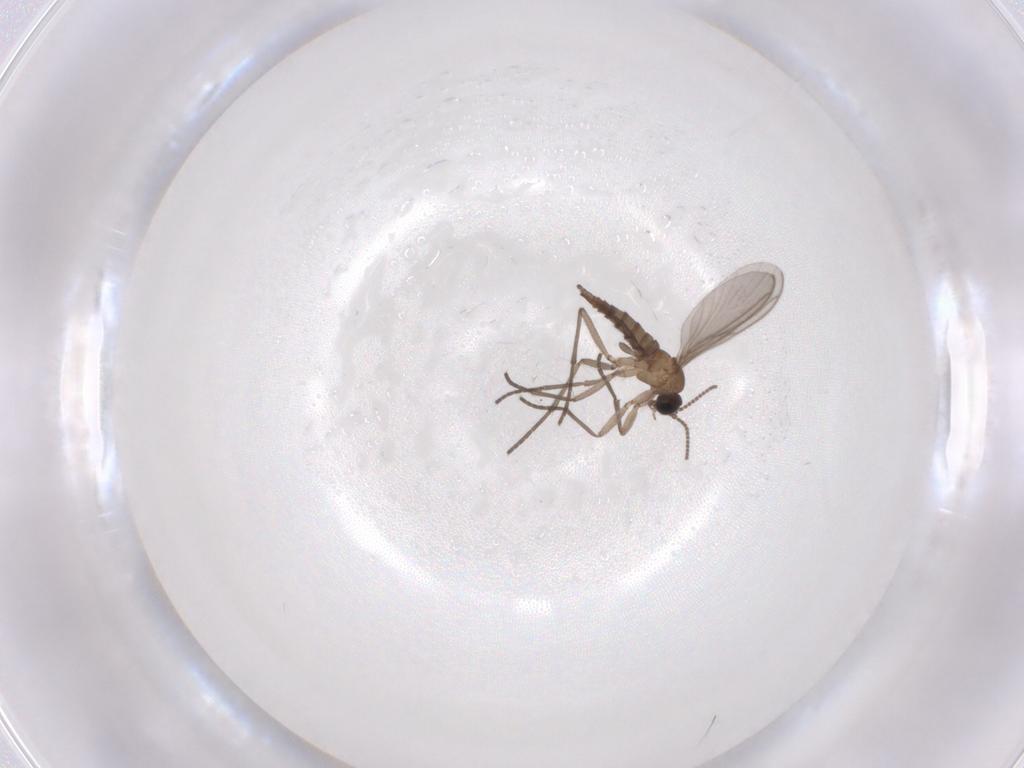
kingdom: Animalia
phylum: Arthropoda
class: Insecta
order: Diptera
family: Sciaridae
